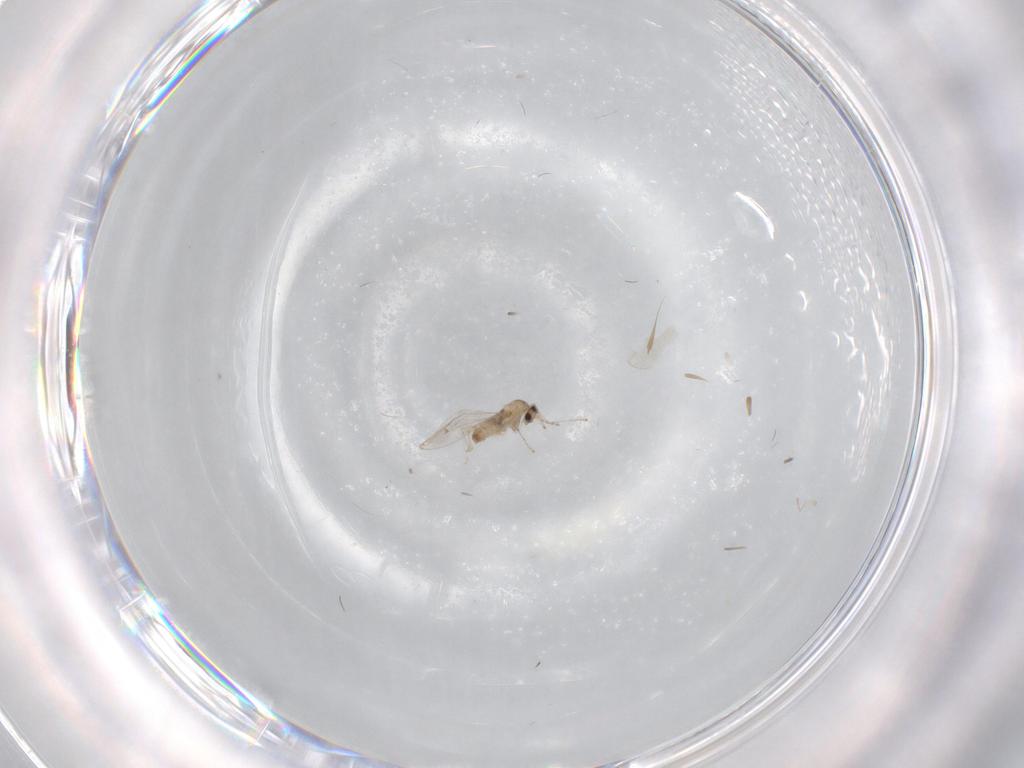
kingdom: Animalia
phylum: Arthropoda
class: Insecta
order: Diptera
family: Cecidomyiidae
